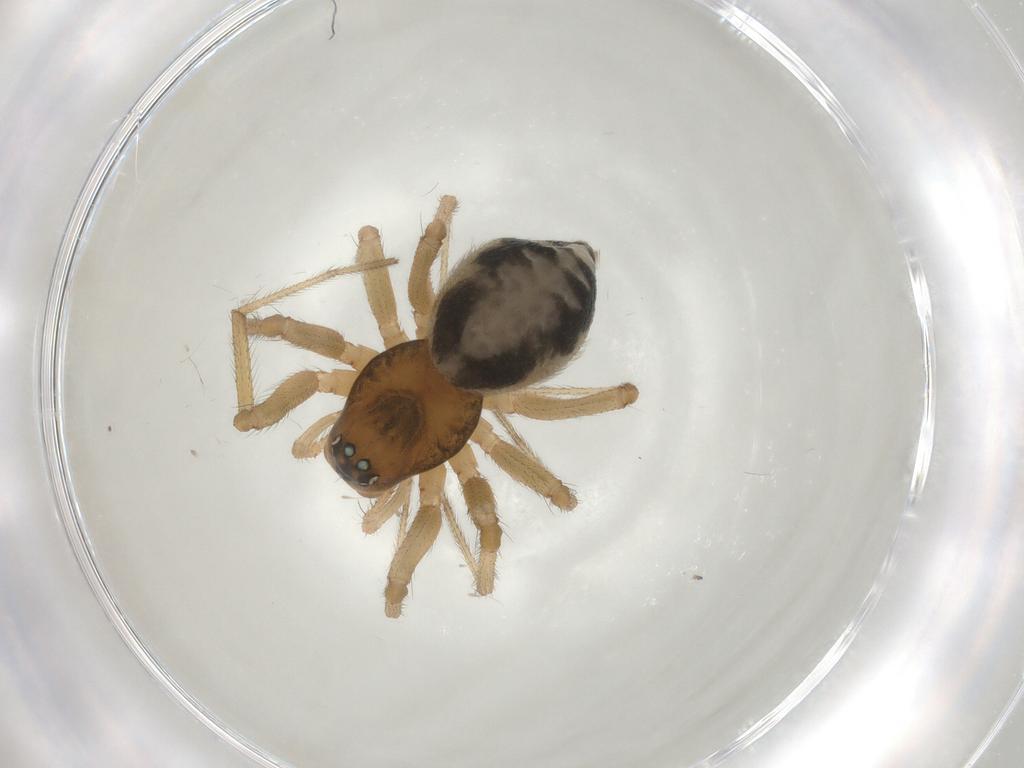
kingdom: Animalia
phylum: Arthropoda
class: Arachnida
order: Araneae
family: Linyphiidae
